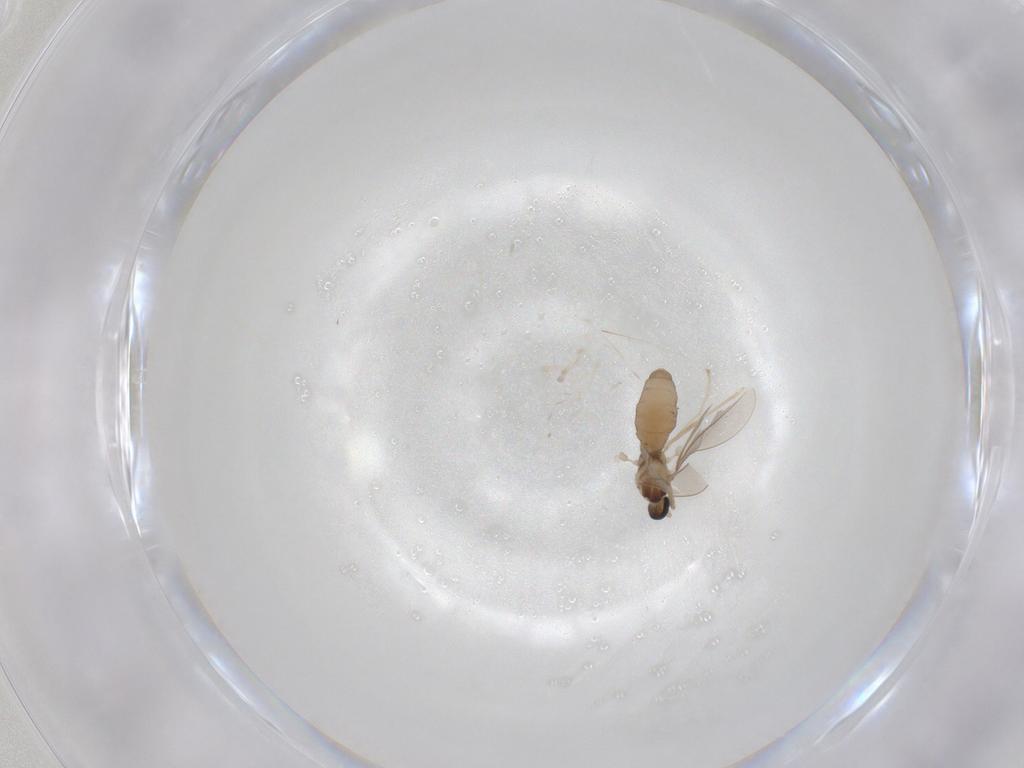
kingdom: Animalia
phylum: Arthropoda
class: Insecta
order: Diptera
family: Cecidomyiidae
